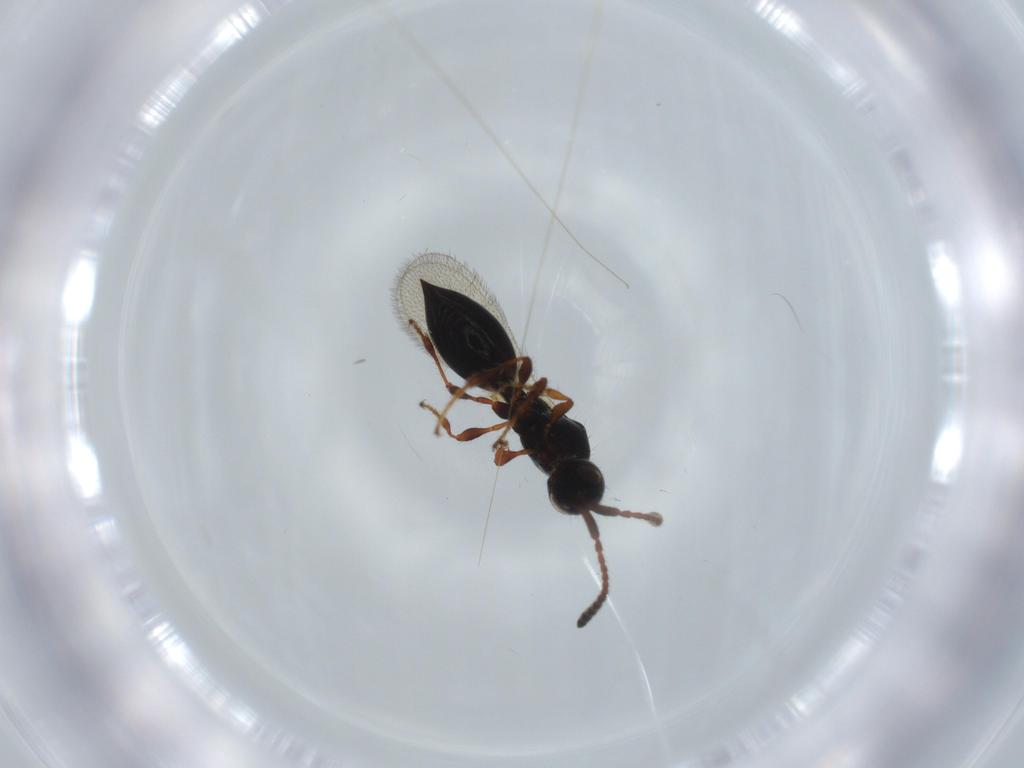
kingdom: Animalia
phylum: Arthropoda
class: Insecta
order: Hymenoptera
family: Diapriidae
